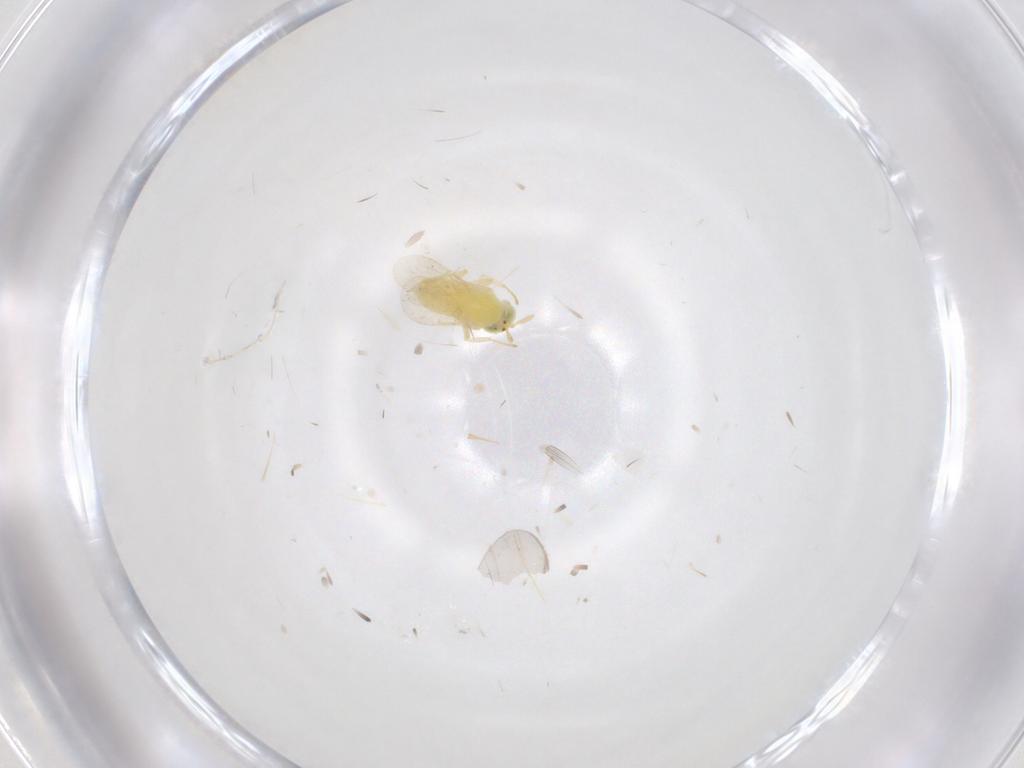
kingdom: Animalia
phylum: Arthropoda
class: Insecta
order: Hymenoptera
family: Aphelinidae
